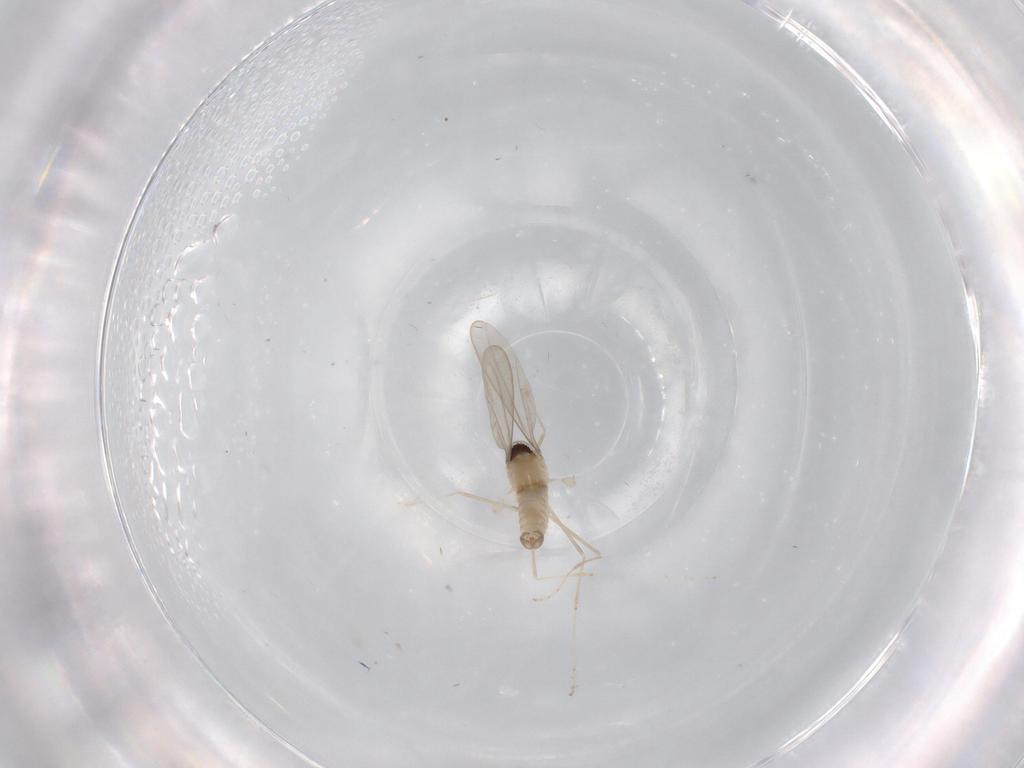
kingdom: Animalia
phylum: Arthropoda
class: Insecta
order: Diptera
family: Cecidomyiidae
